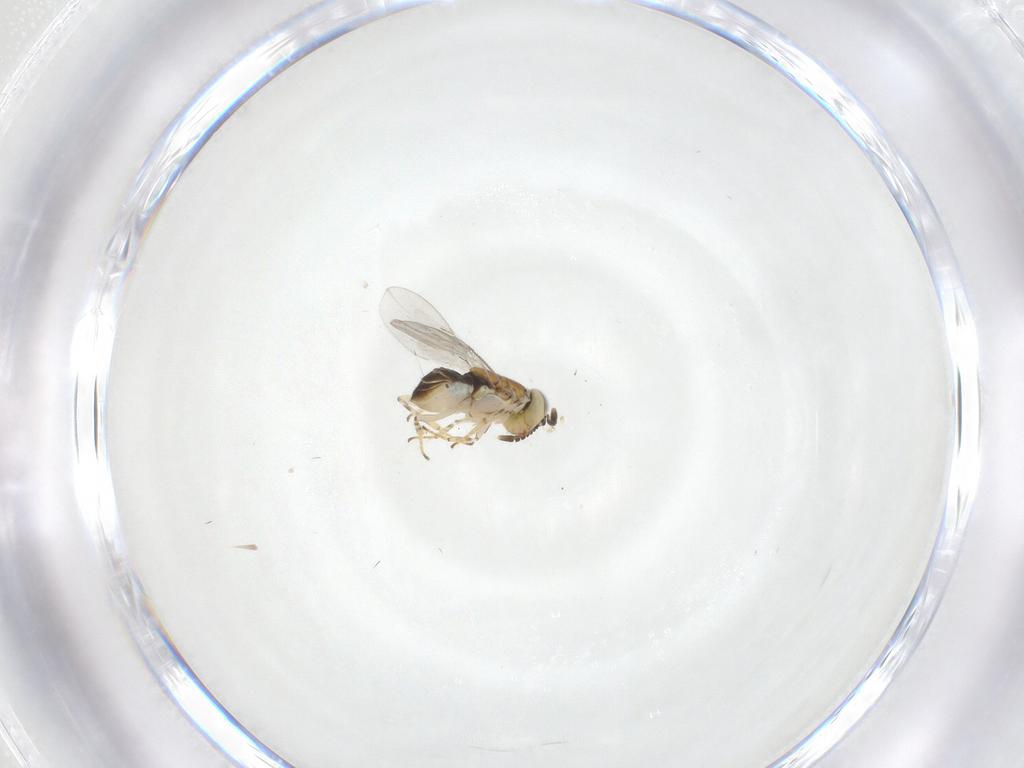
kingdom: Animalia
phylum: Arthropoda
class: Insecta
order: Hymenoptera
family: Encyrtidae
